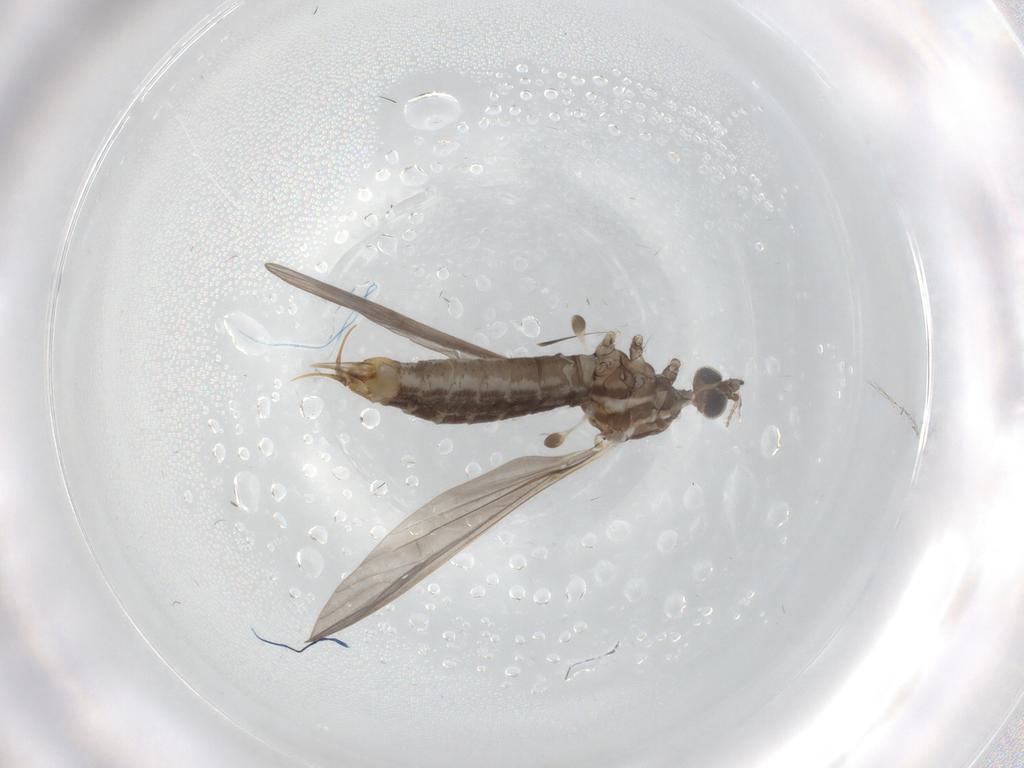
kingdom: Animalia
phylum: Arthropoda
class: Insecta
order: Diptera
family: Limoniidae
